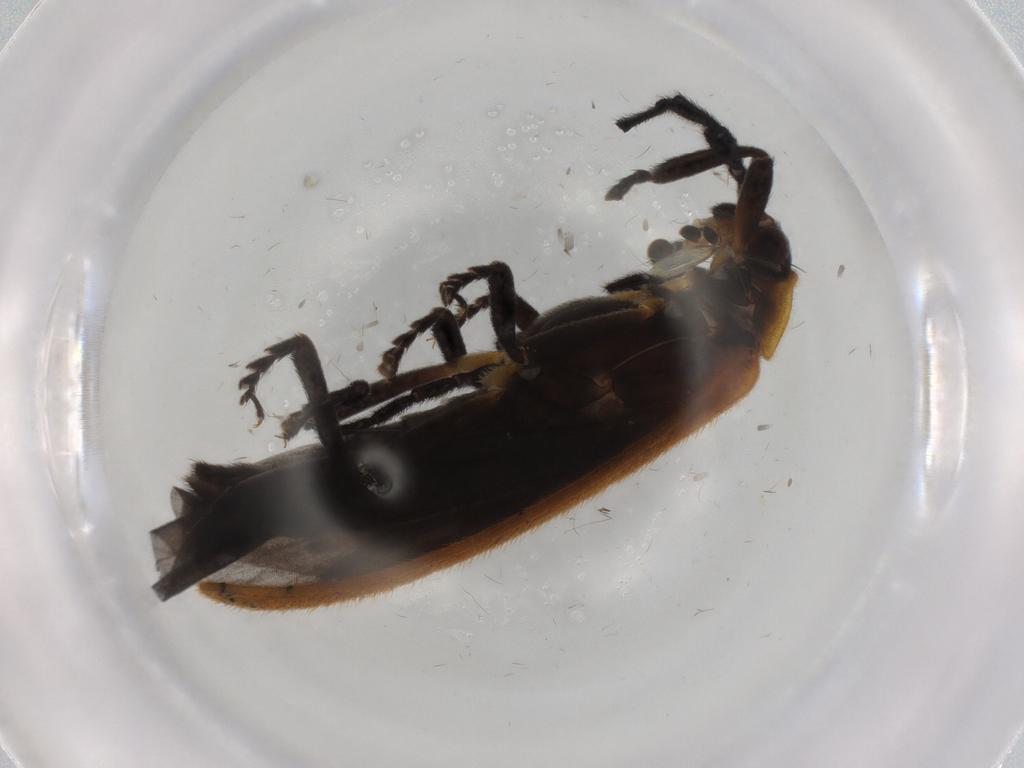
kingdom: Animalia
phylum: Arthropoda
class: Insecta
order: Coleoptera
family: Lycidae
